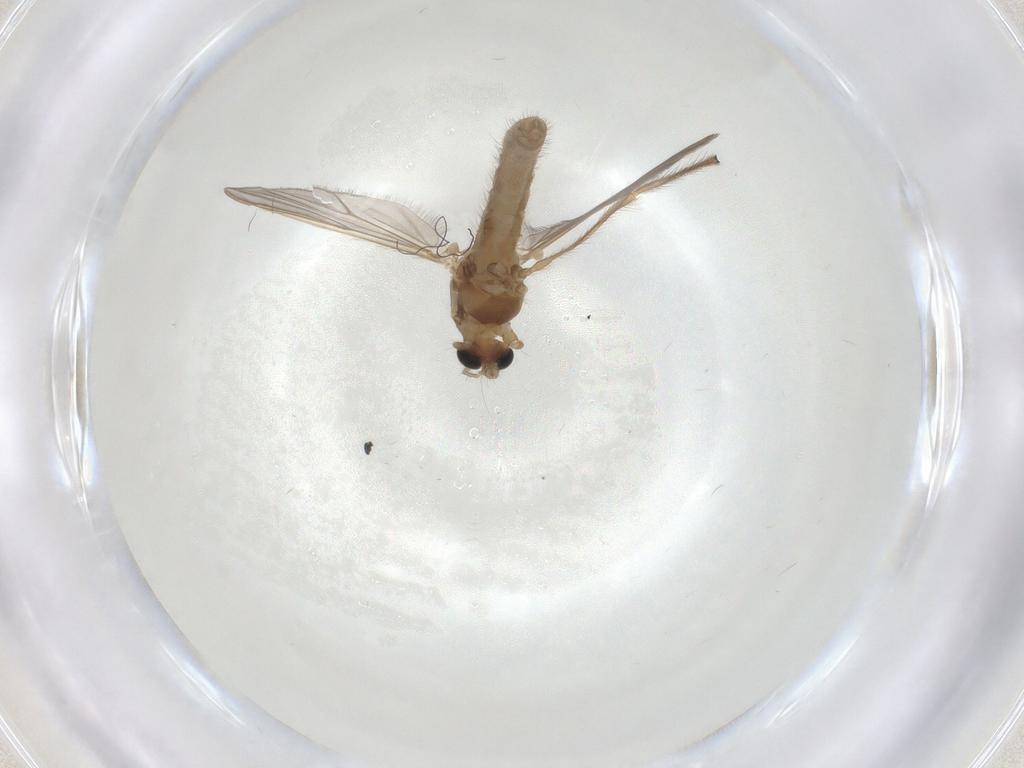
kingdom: Animalia
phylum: Arthropoda
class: Insecta
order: Diptera
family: Chironomidae
